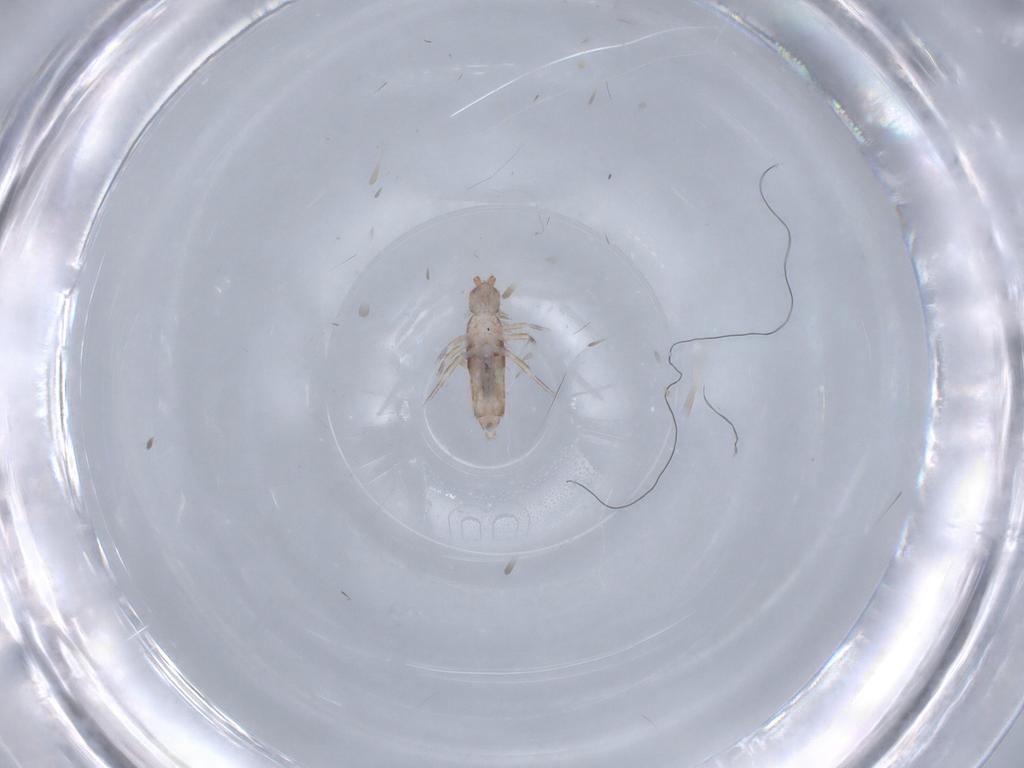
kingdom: Animalia
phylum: Arthropoda
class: Collembola
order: Entomobryomorpha
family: Entomobryidae
